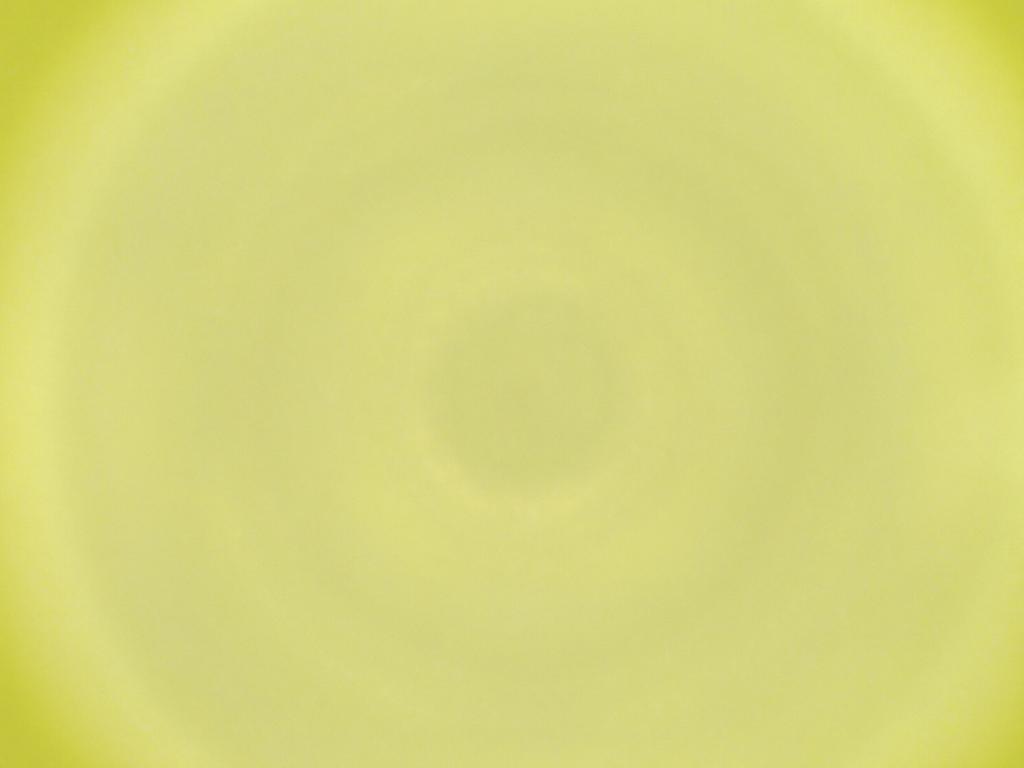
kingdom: Animalia
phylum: Arthropoda
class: Insecta
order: Diptera
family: Cecidomyiidae
